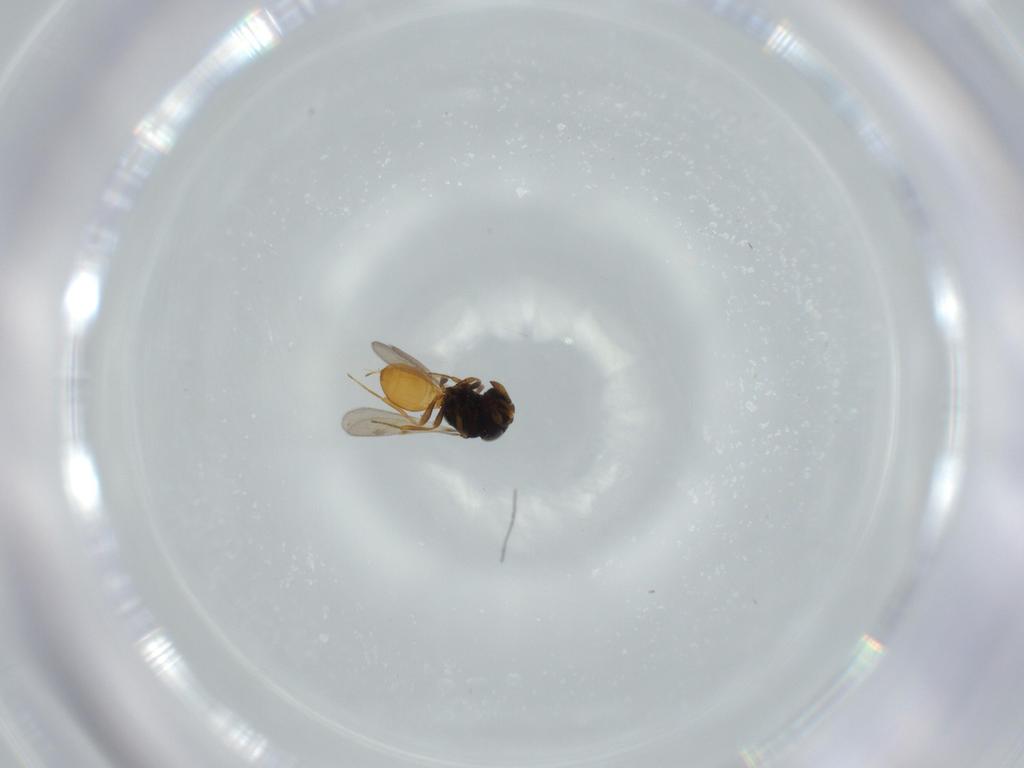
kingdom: Animalia
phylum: Arthropoda
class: Insecta
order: Hymenoptera
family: Scelionidae
